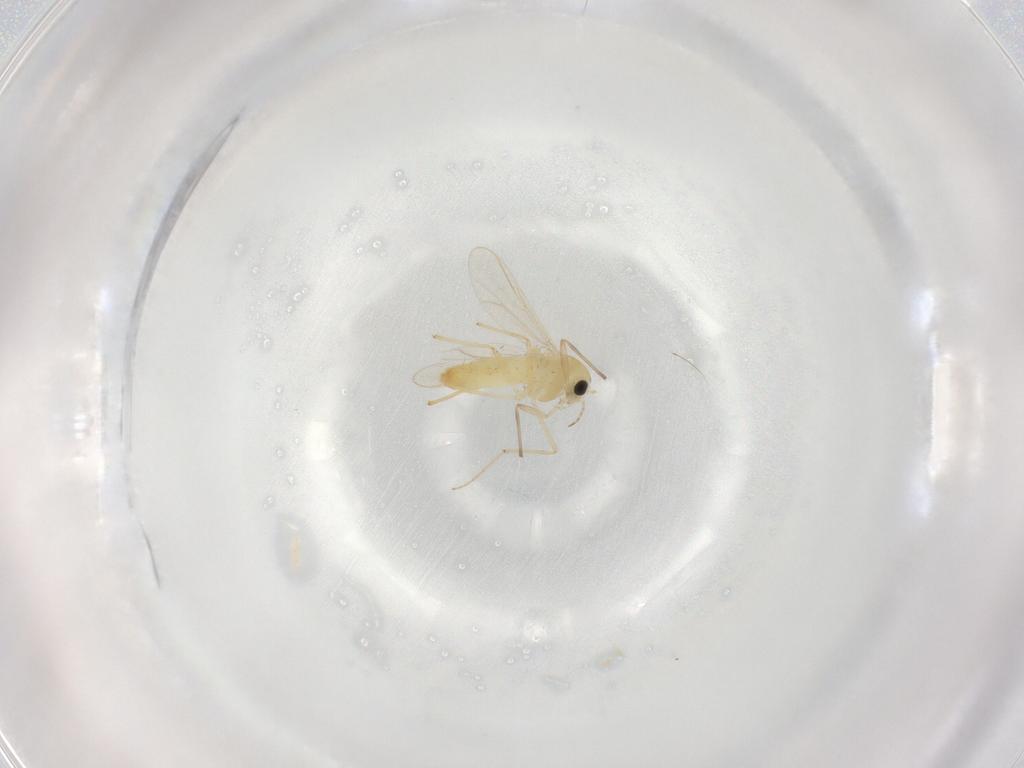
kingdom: Animalia
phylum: Arthropoda
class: Insecta
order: Diptera
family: Chironomidae
